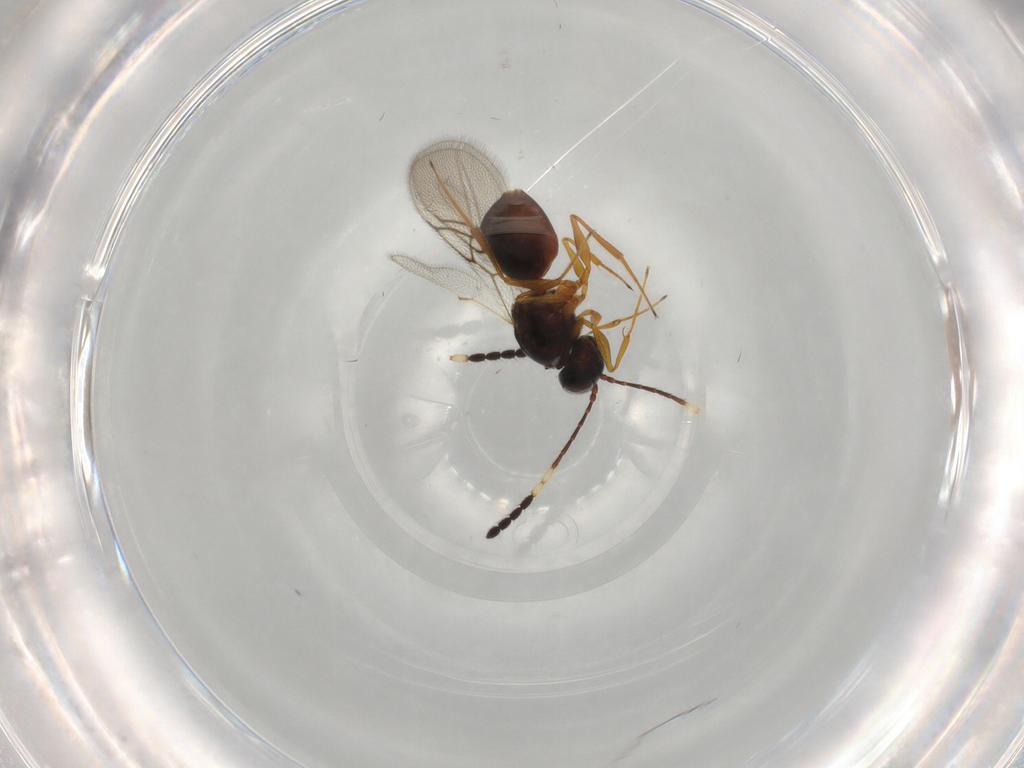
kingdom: Animalia
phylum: Arthropoda
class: Insecta
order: Hymenoptera
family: Figitidae
